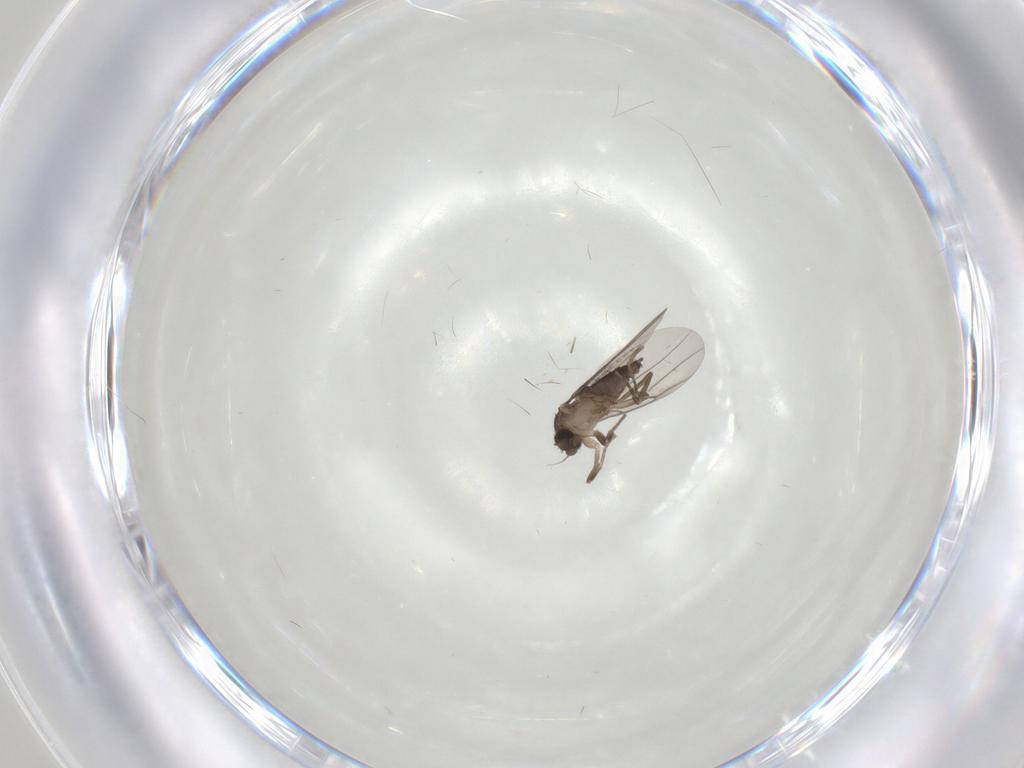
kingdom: Animalia
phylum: Arthropoda
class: Insecta
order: Diptera
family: Psychodidae
